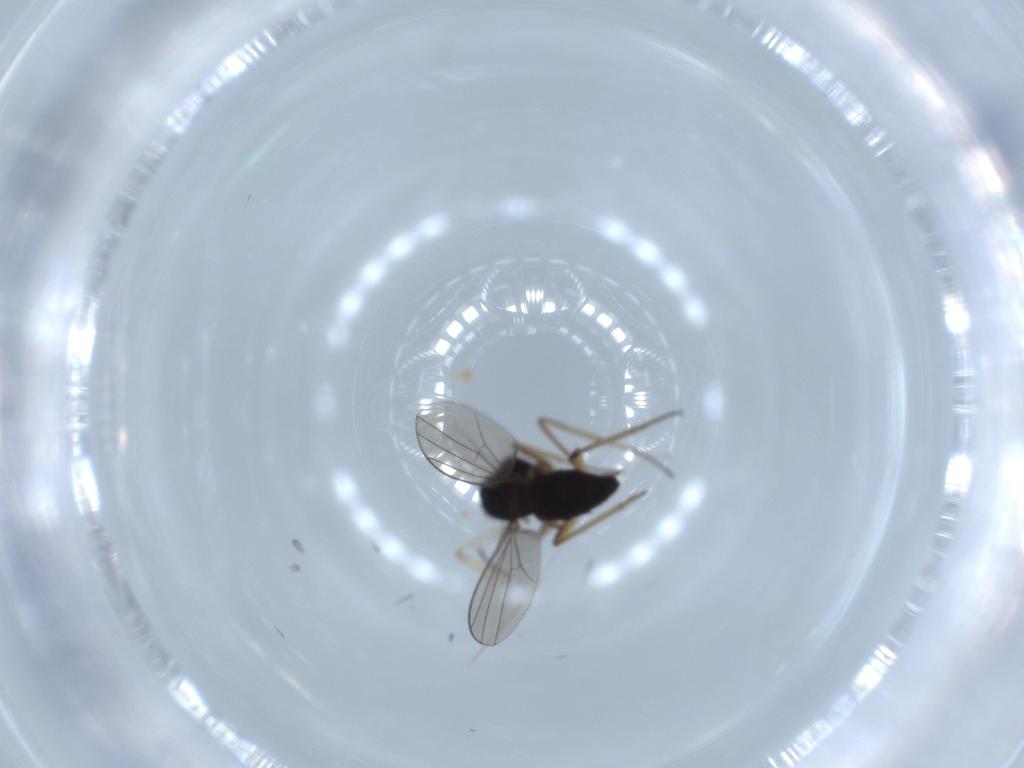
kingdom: Animalia
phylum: Arthropoda
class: Insecta
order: Diptera
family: Dolichopodidae
